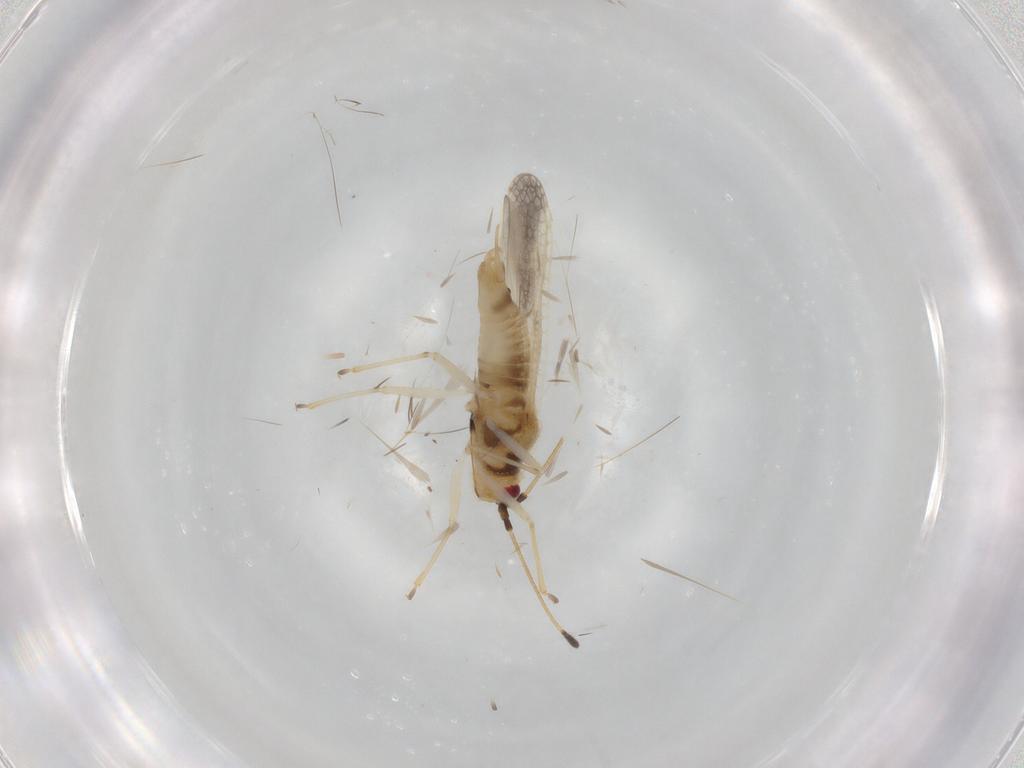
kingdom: Animalia
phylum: Arthropoda
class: Insecta
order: Hemiptera
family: Tingidae
